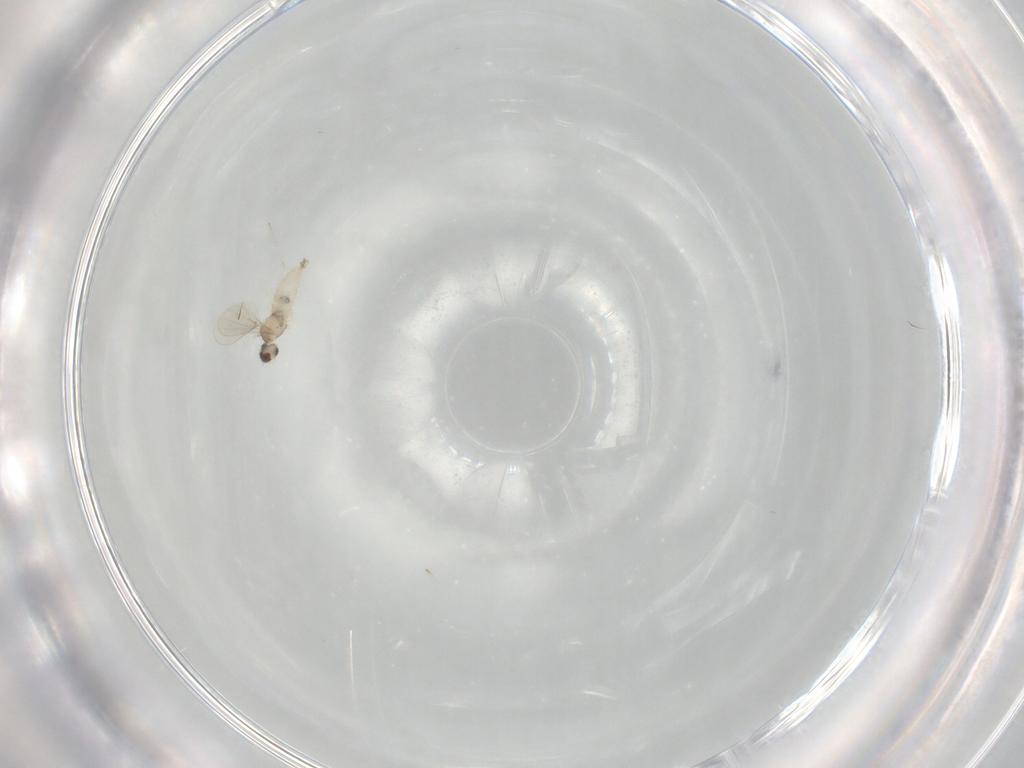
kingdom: Animalia
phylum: Arthropoda
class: Insecta
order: Diptera
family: Cecidomyiidae
